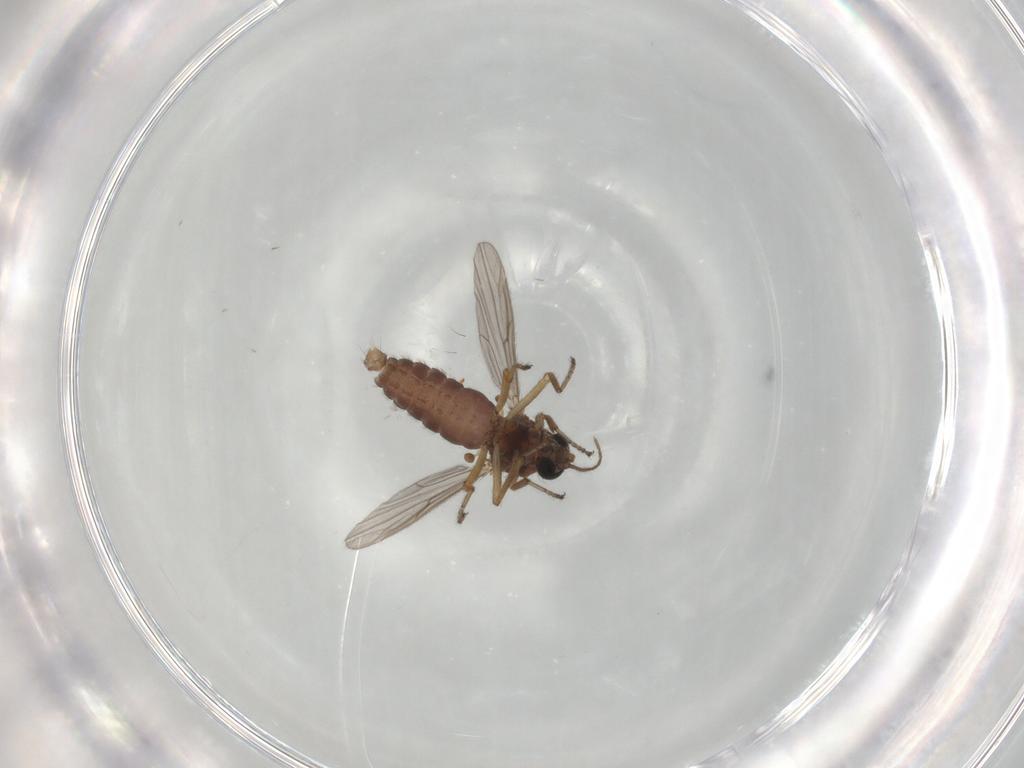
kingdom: Animalia
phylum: Arthropoda
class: Insecta
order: Diptera
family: Ceratopogonidae
